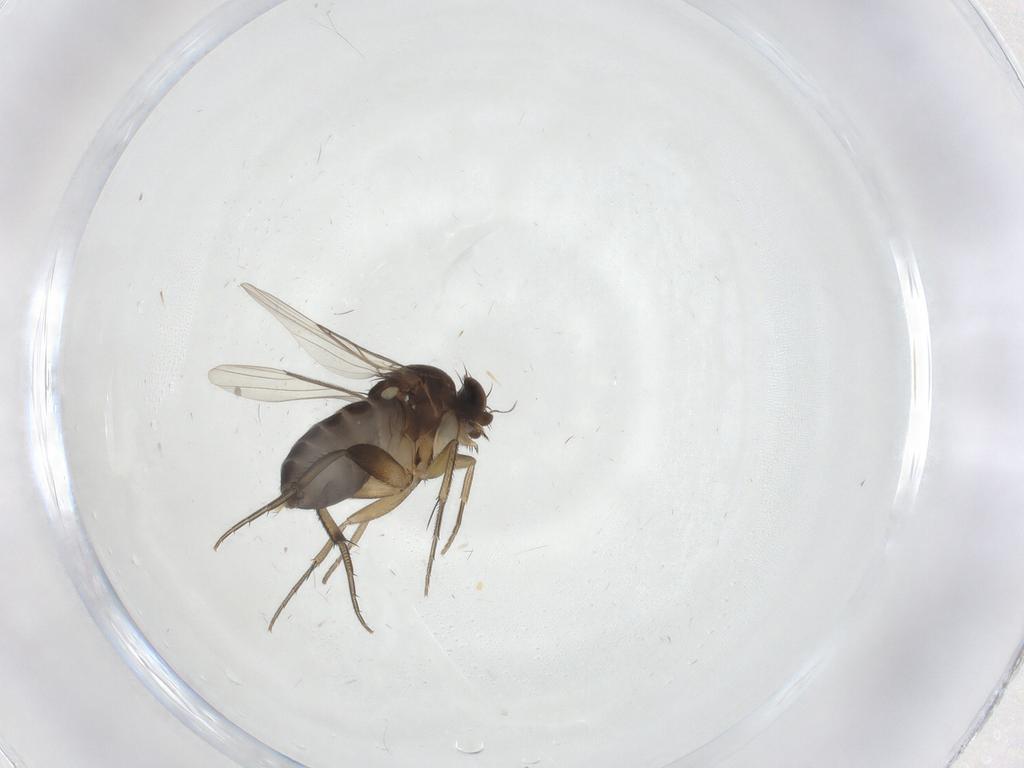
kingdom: Animalia
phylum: Arthropoda
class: Insecta
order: Diptera
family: Phoridae
